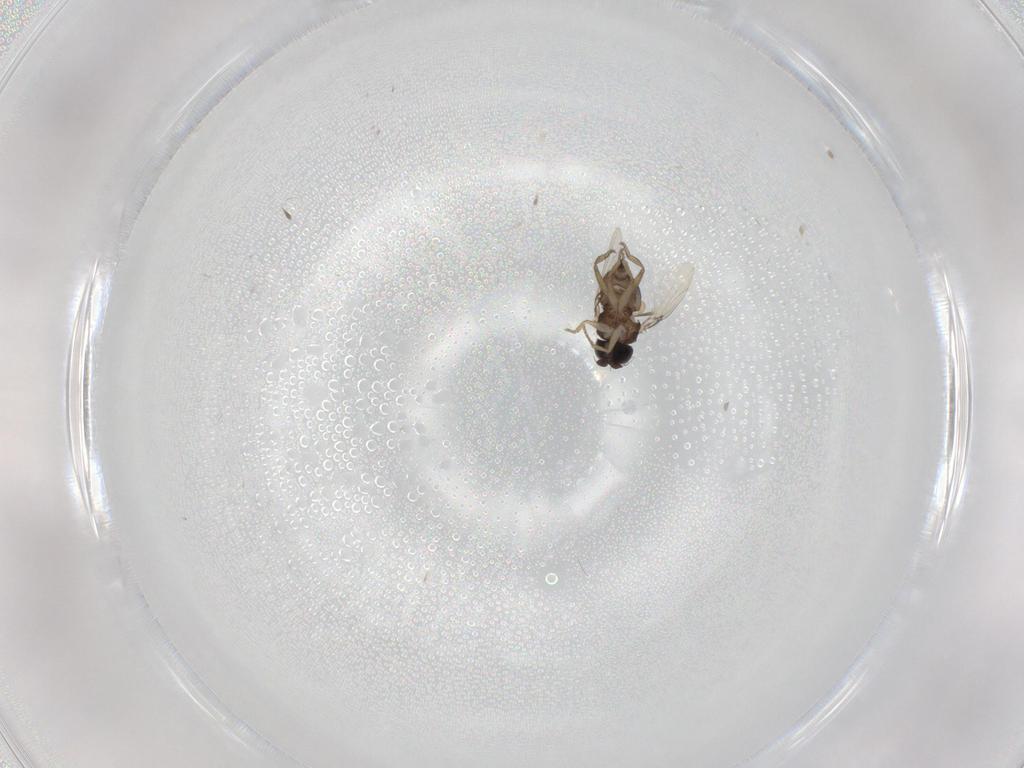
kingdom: Animalia
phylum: Arthropoda
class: Insecta
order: Diptera
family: Phoridae
